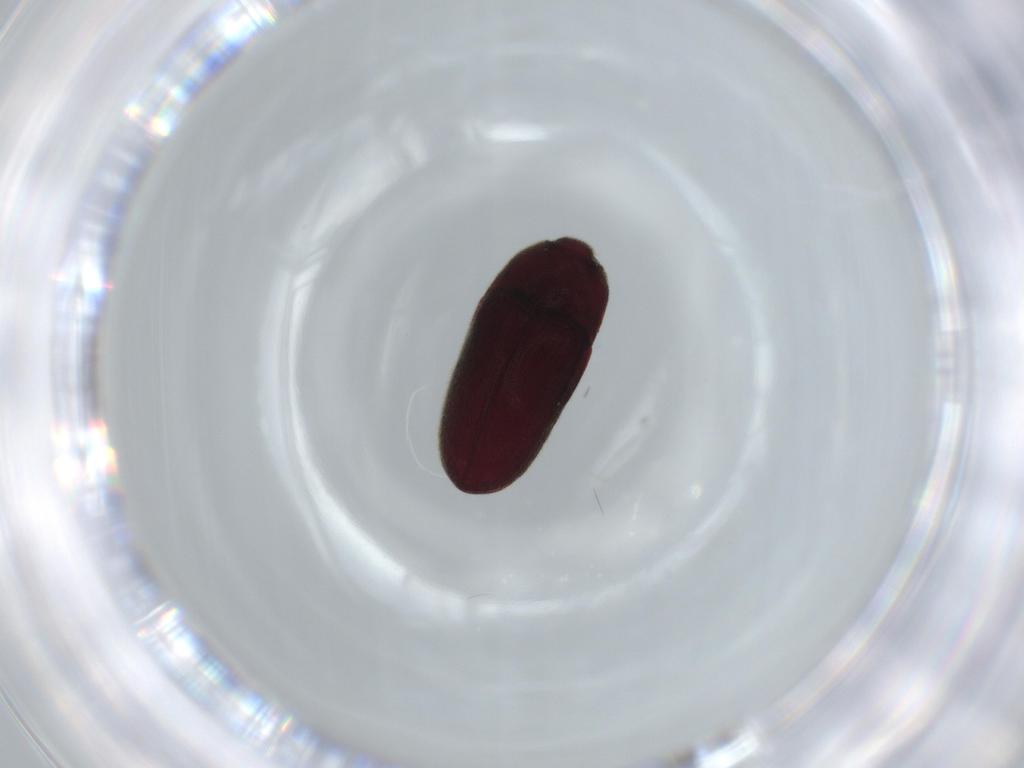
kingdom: Animalia
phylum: Arthropoda
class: Insecta
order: Coleoptera
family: Throscidae
